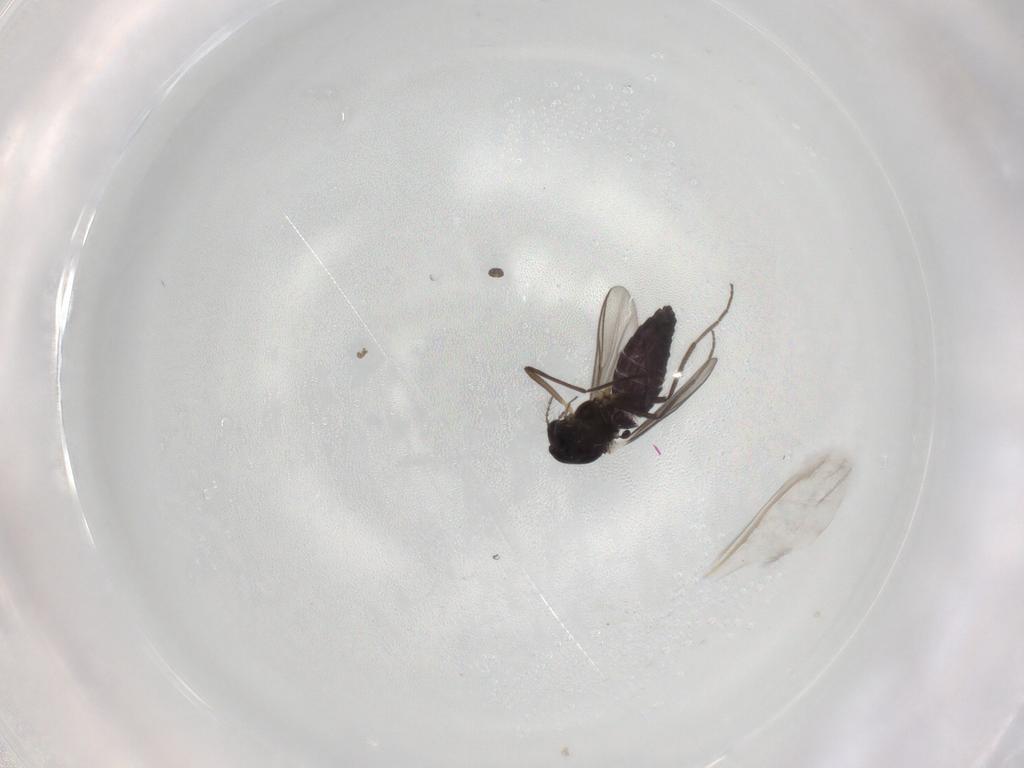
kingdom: Animalia
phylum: Arthropoda
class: Insecta
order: Diptera
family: Chironomidae
